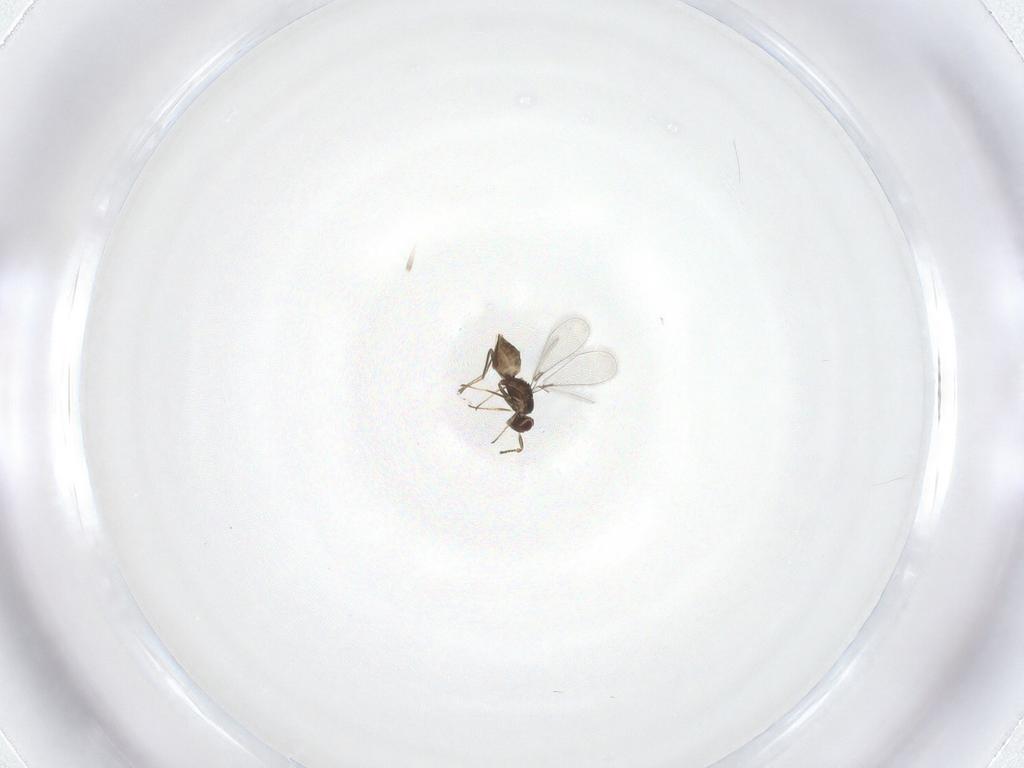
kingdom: Animalia
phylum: Arthropoda
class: Insecta
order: Hymenoptera
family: Mymaridae
